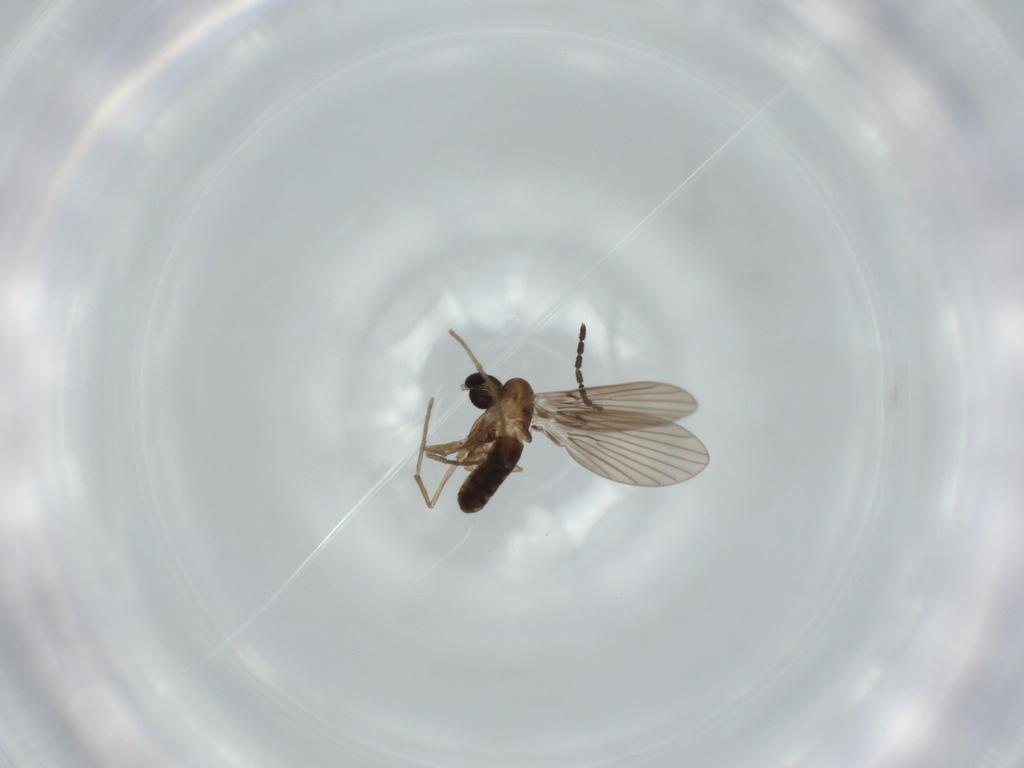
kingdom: Animalia
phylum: Arthropoda
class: Insecta
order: Diptera
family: Psychodidae
